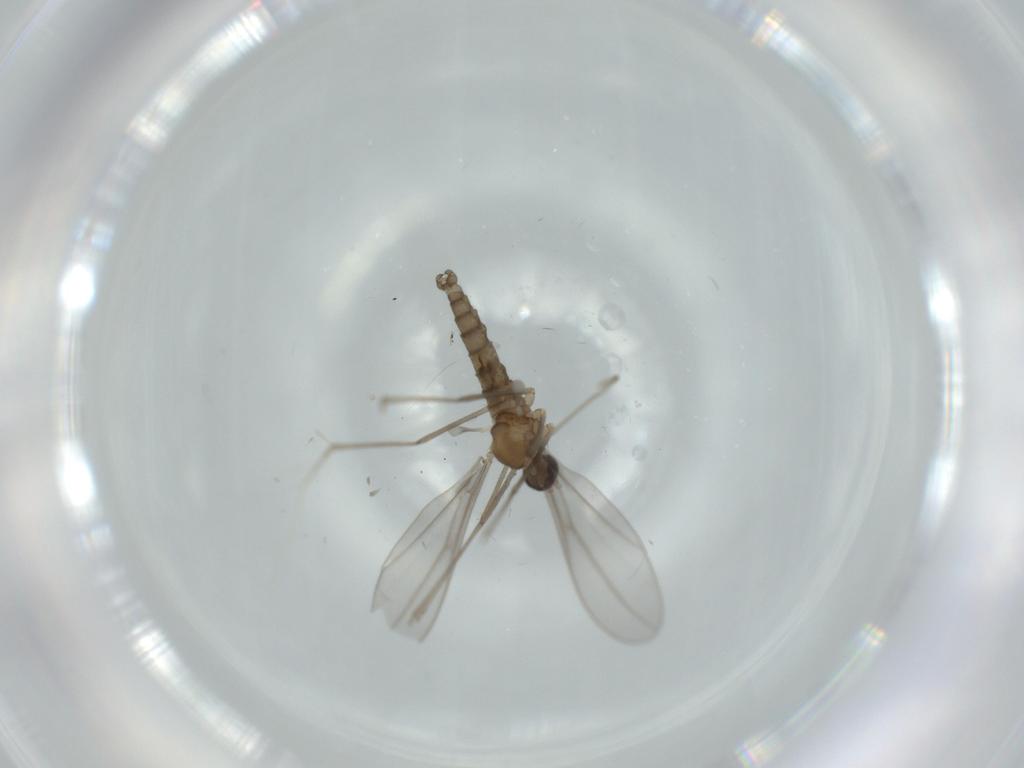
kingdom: Animalia
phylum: Arthropoda
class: Insecta
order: Diptera
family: Cecidomyiidae
